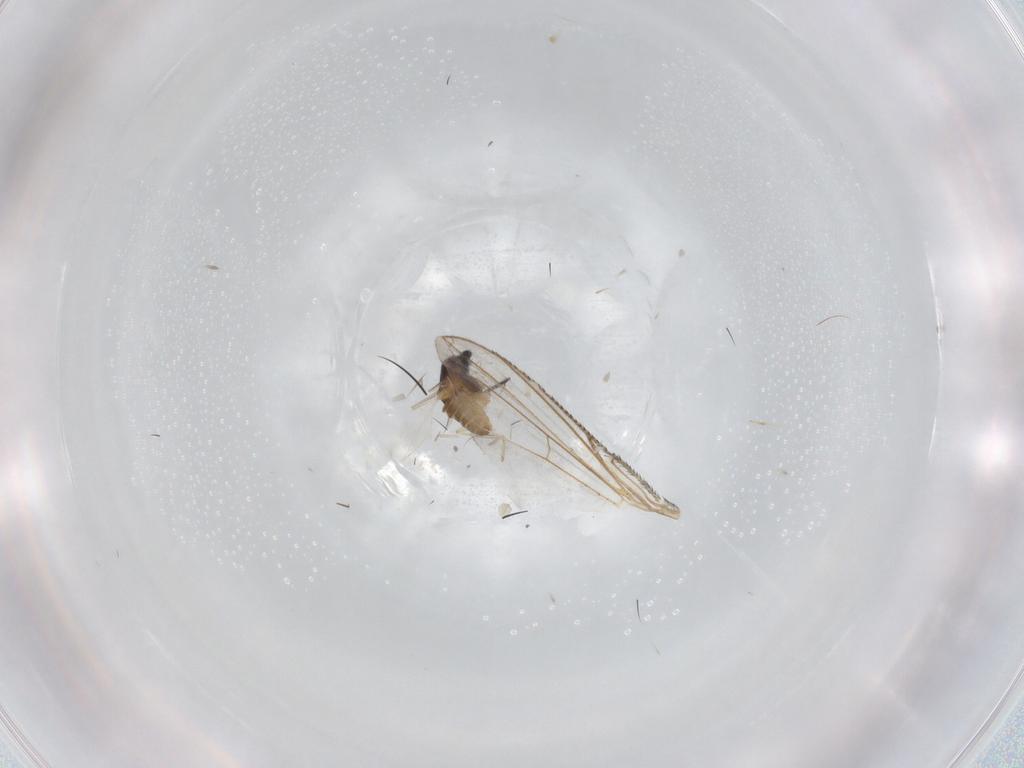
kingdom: Animalia
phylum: Arthropoda
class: Insecta
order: Diptera
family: Cecidomyiidae
